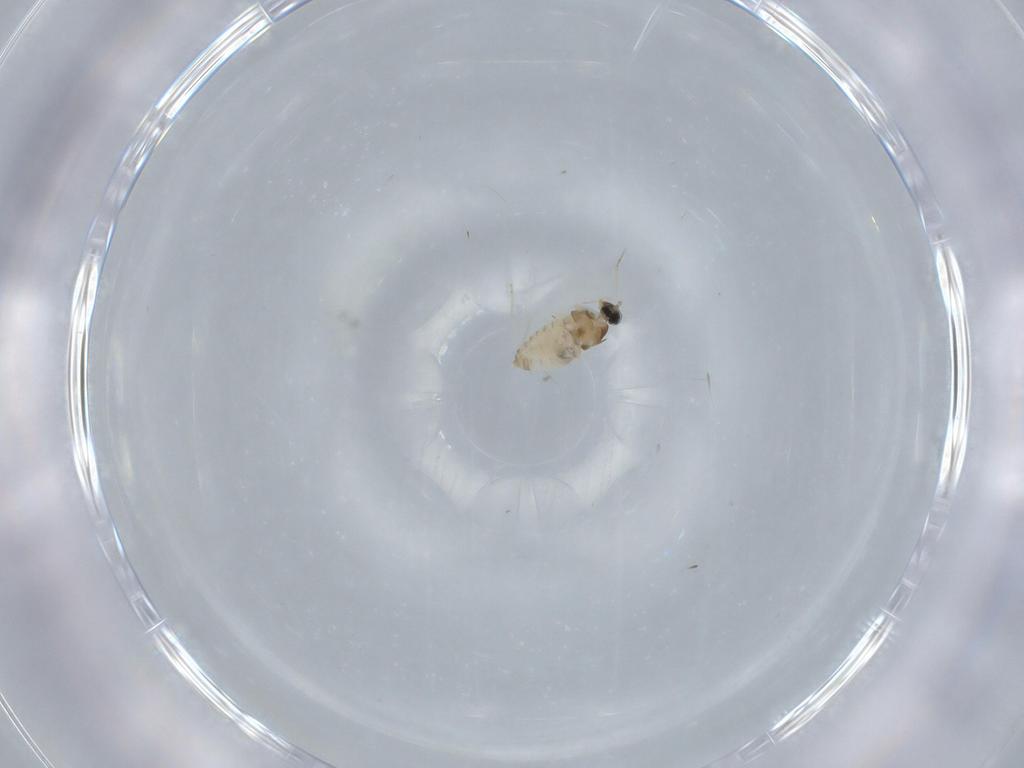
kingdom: Animalia
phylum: Arthropoda
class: Insecta
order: Diptera
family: Cecidomyiidae
